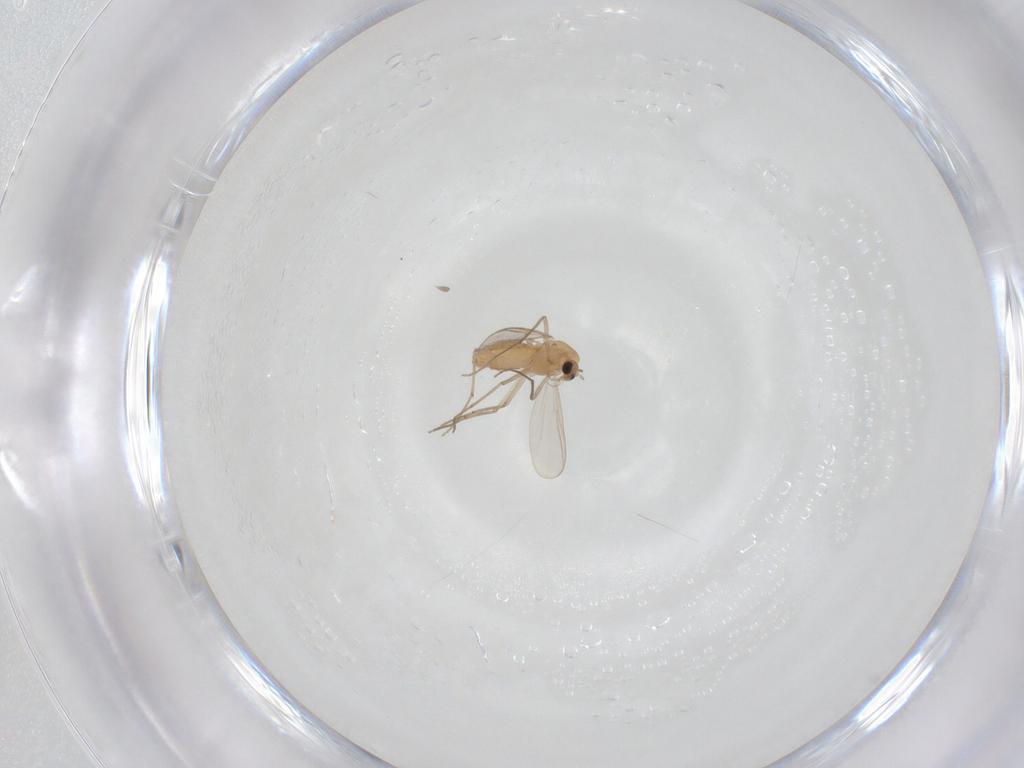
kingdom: Animalia
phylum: Arthropoda
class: Insecta
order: Diptera
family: Chironomidae
